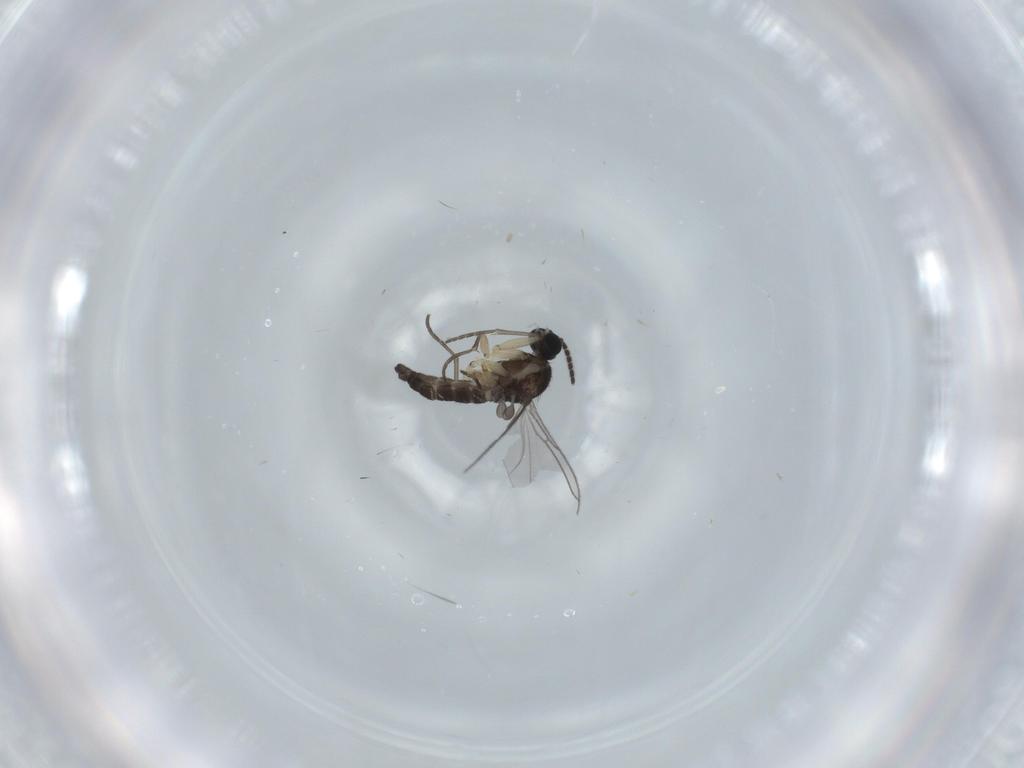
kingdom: Animalia
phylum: Arthropoda
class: Insecta
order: Diptera
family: Sciaridae
